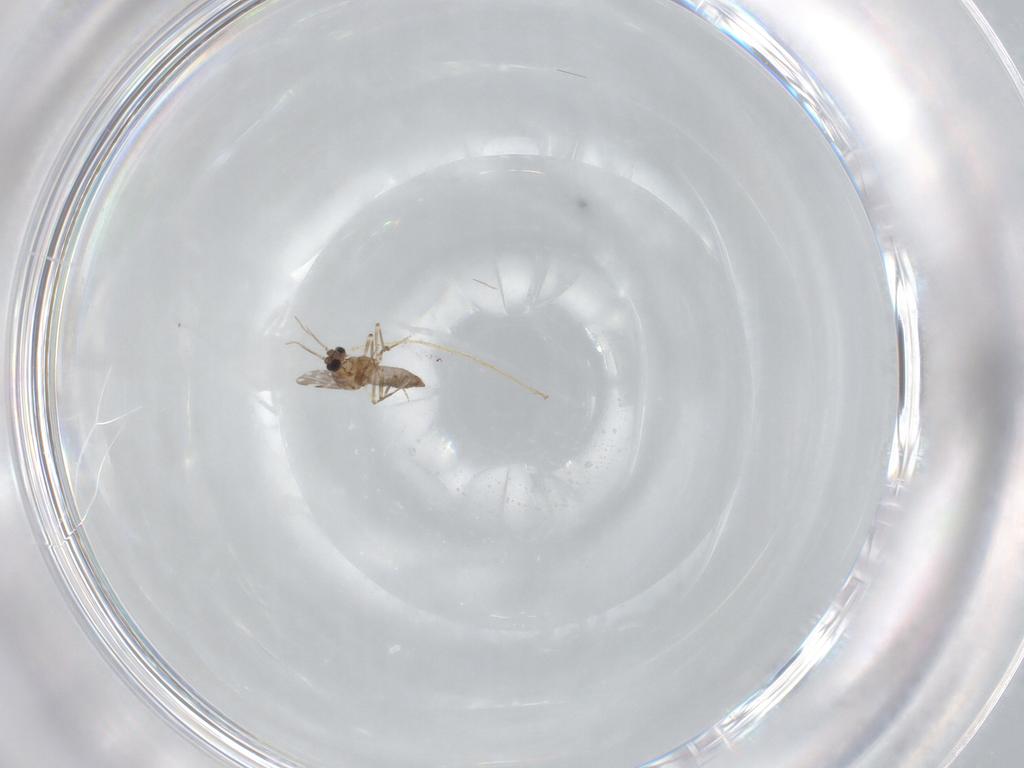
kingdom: Animalia
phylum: Arthropoda
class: Insecta
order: Diptera
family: Ceratopogonidae
